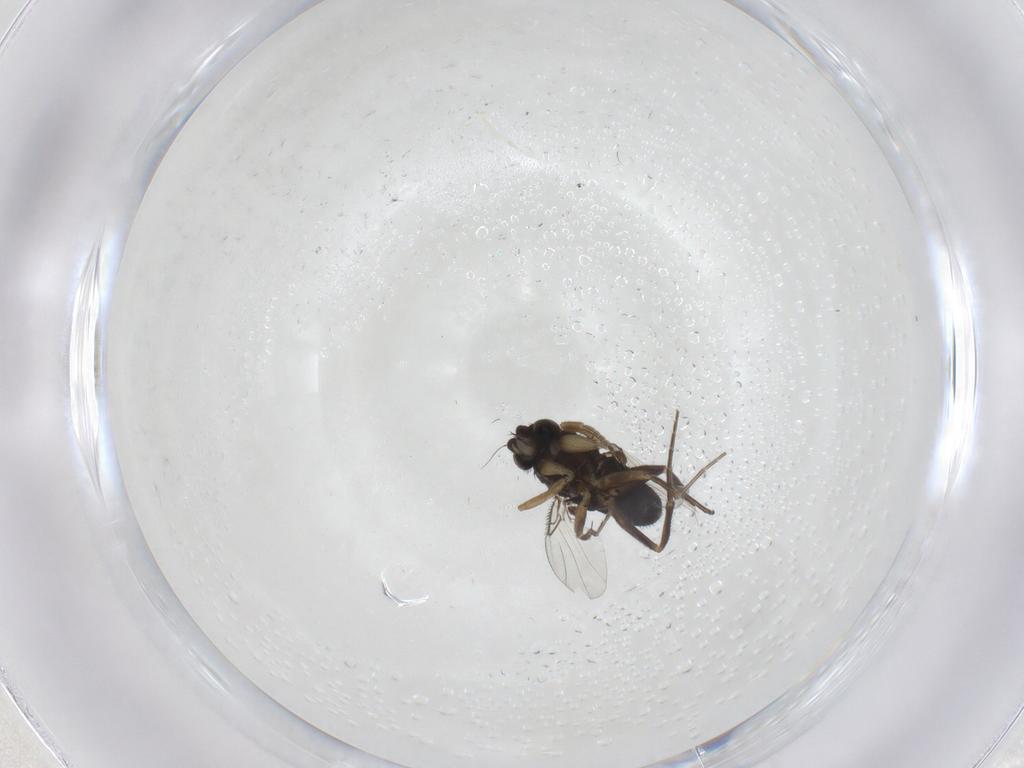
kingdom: Animalia
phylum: Arthropoda
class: Insecta
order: Diptera
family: Phoridae
